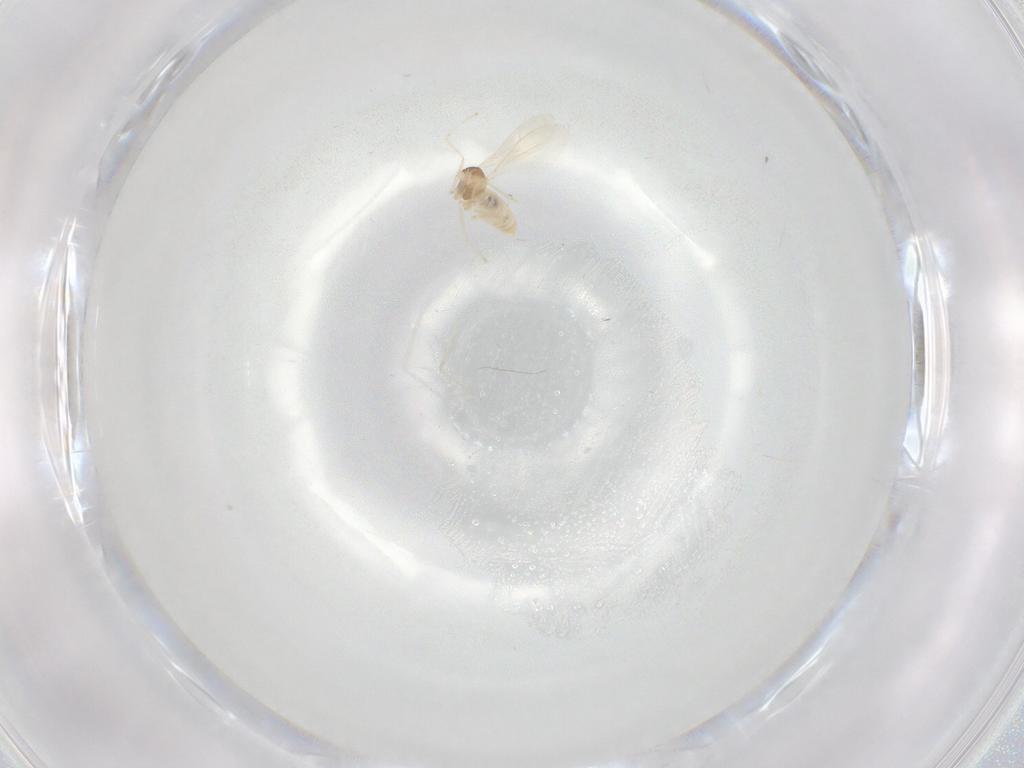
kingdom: Animalia
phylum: Arthropoda
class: Insecta
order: Diptera
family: Cecidomyiidae
